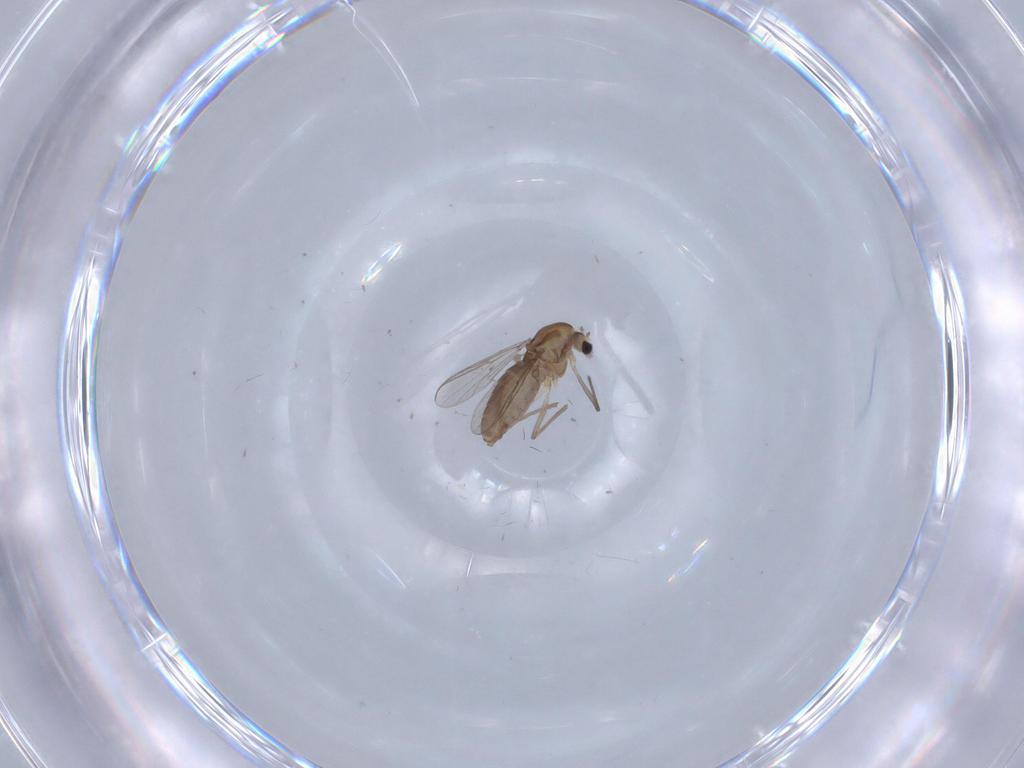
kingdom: Animalia
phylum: Arthropoda
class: Insecta
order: Diptera
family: Chironomidae
